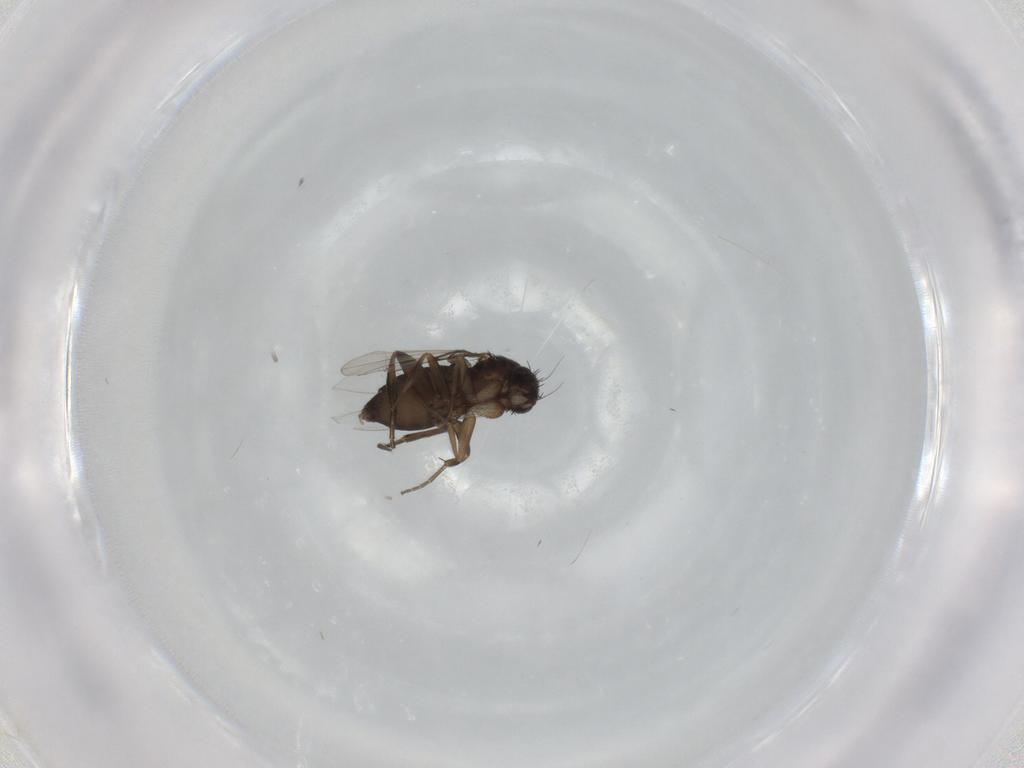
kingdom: Animalia
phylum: Arthropoda
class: Insecta
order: Diptera
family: Phoridae
